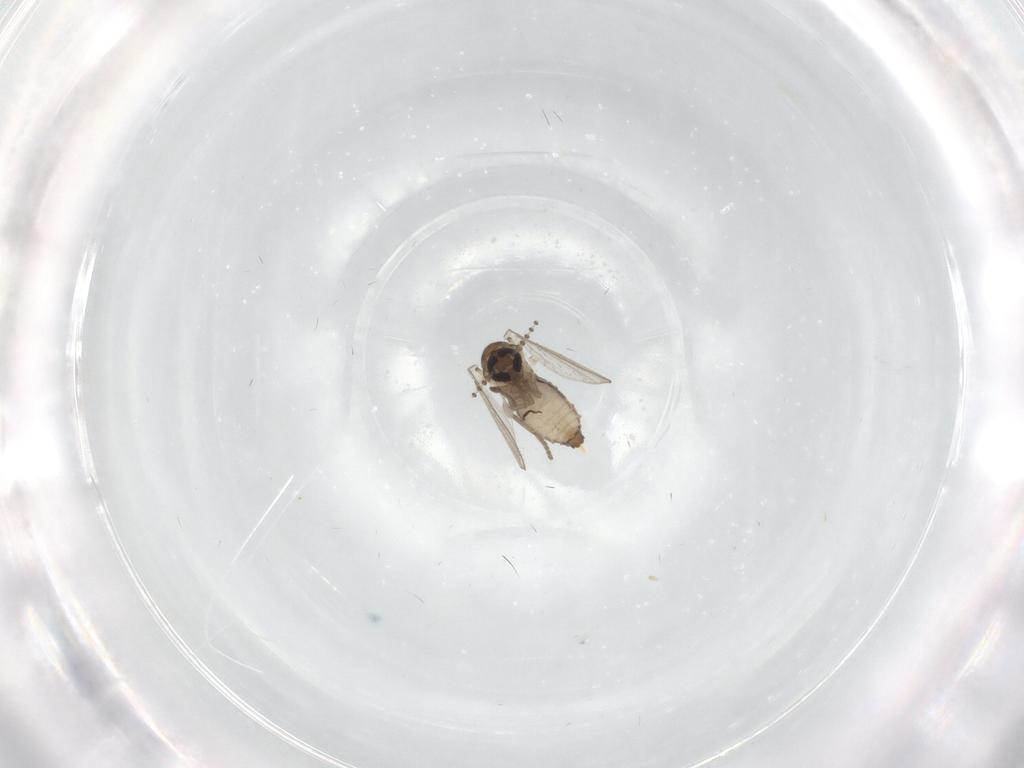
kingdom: Animalia
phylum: Arthropoda
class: Insecta
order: Diptera
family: Psychodidae
